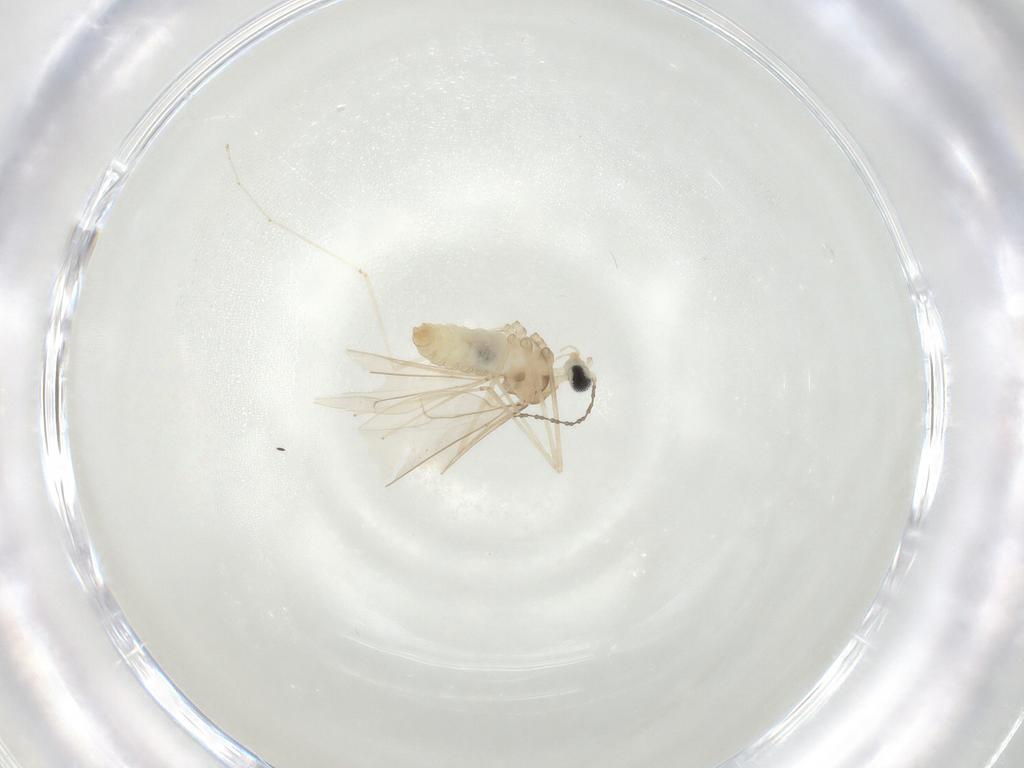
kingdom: Animalia
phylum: Arthropoda
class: Insecta
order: Diptera
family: Cecidomyiidae
